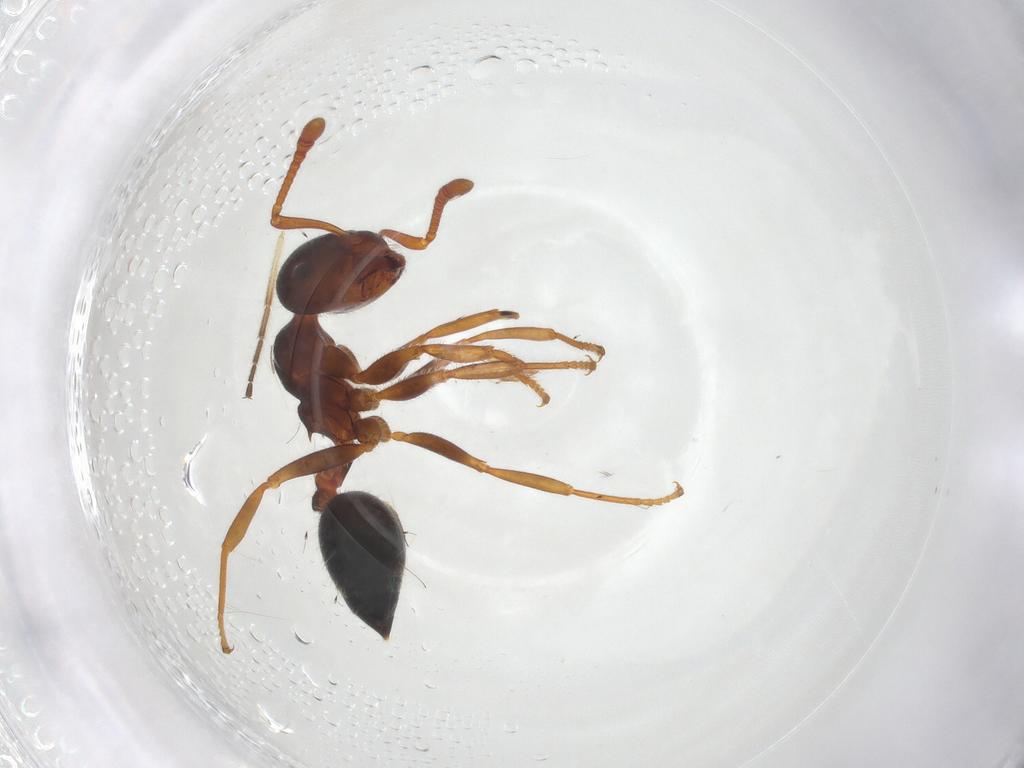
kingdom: Animalia
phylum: Arthropoda
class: Insecta
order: Hymenoptera
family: Formicidae
